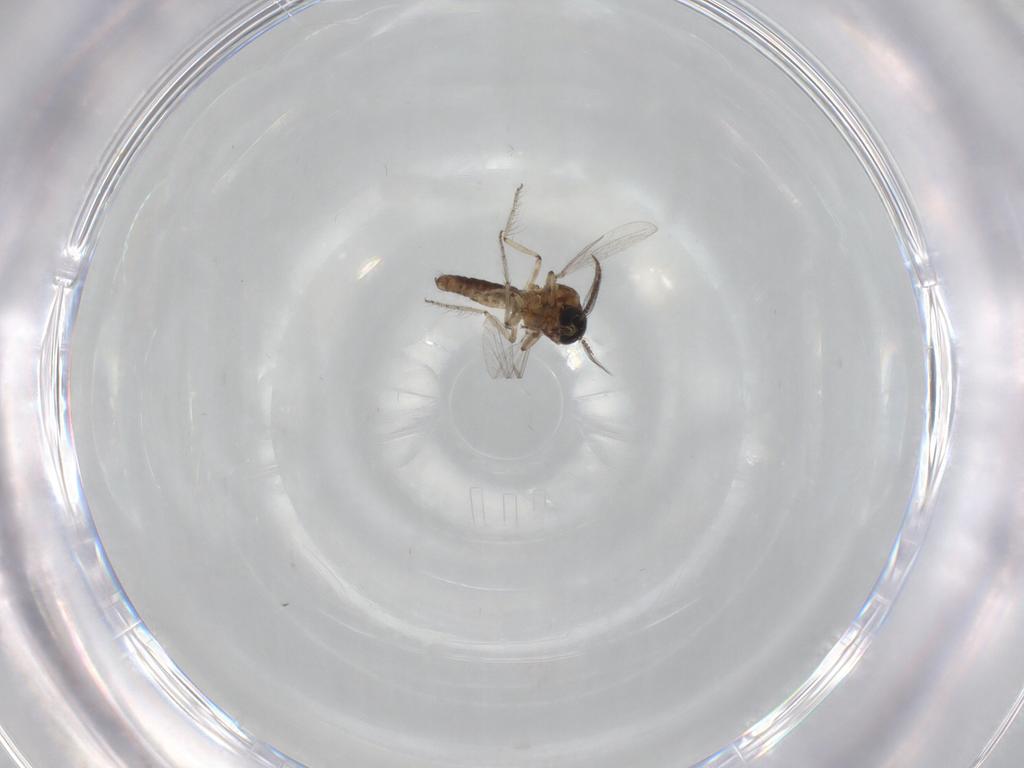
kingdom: Animalia
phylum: Arthropoda
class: Insecta
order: Diptera
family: Ceratopogonidae
